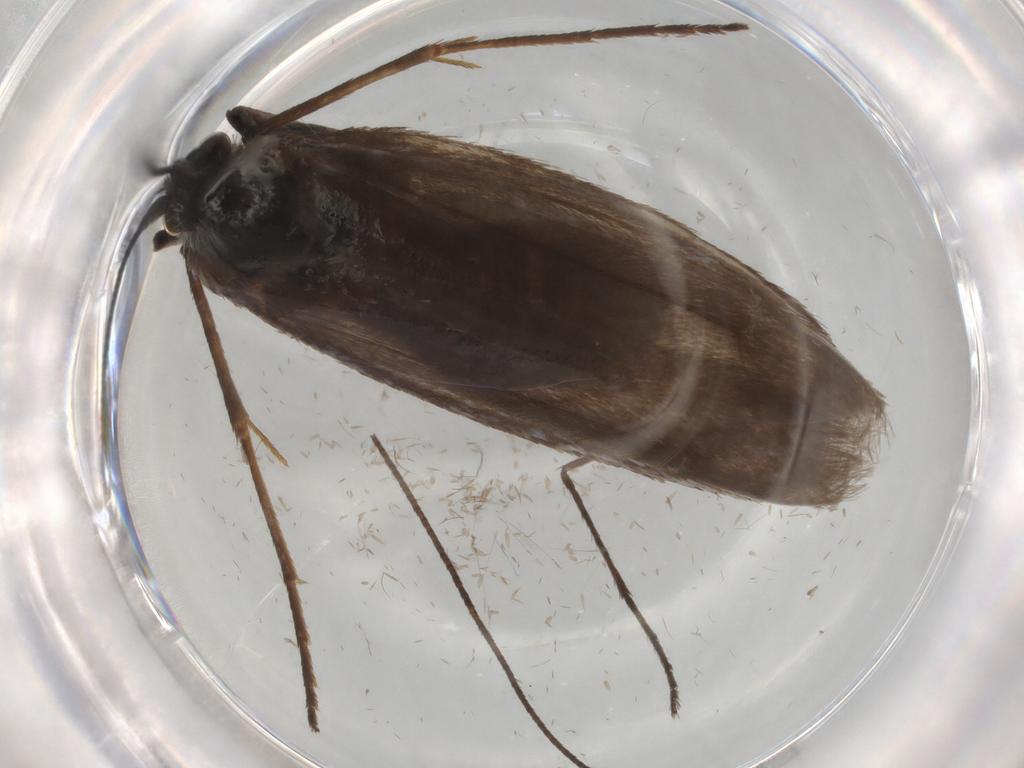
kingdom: Animalia
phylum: Arthropoda
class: Insecta
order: Lepidoptera
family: Adelidae
